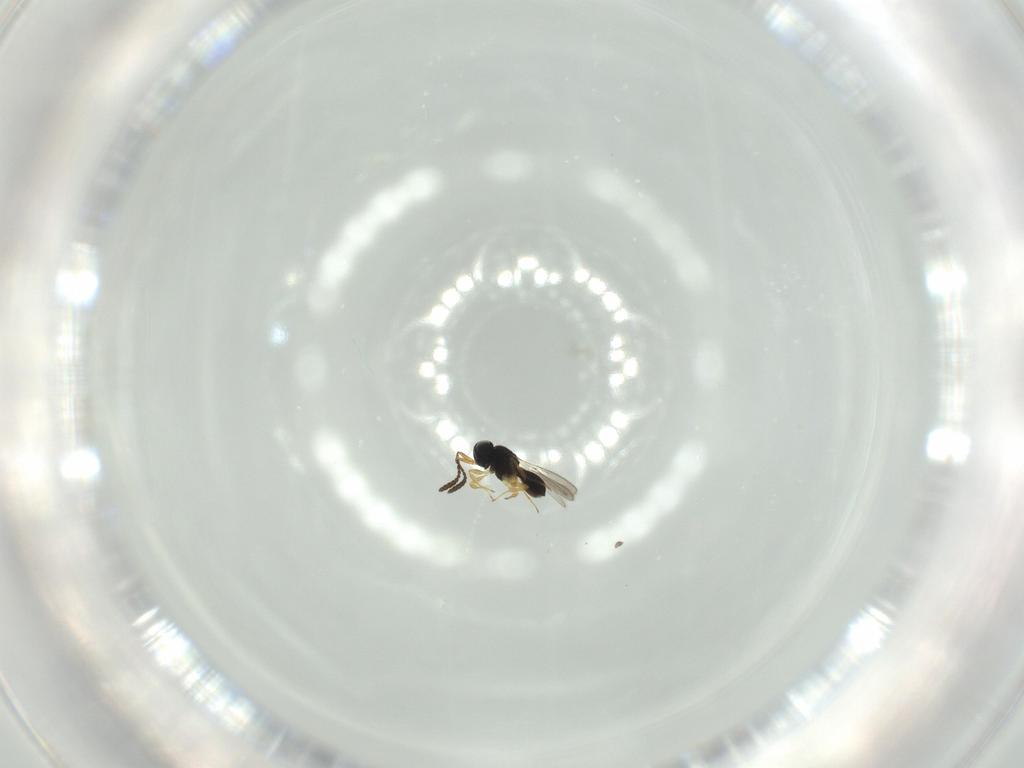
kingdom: Animalia
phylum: Arthropoda
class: Insecta
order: Hymenoptera
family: Scelionidae
